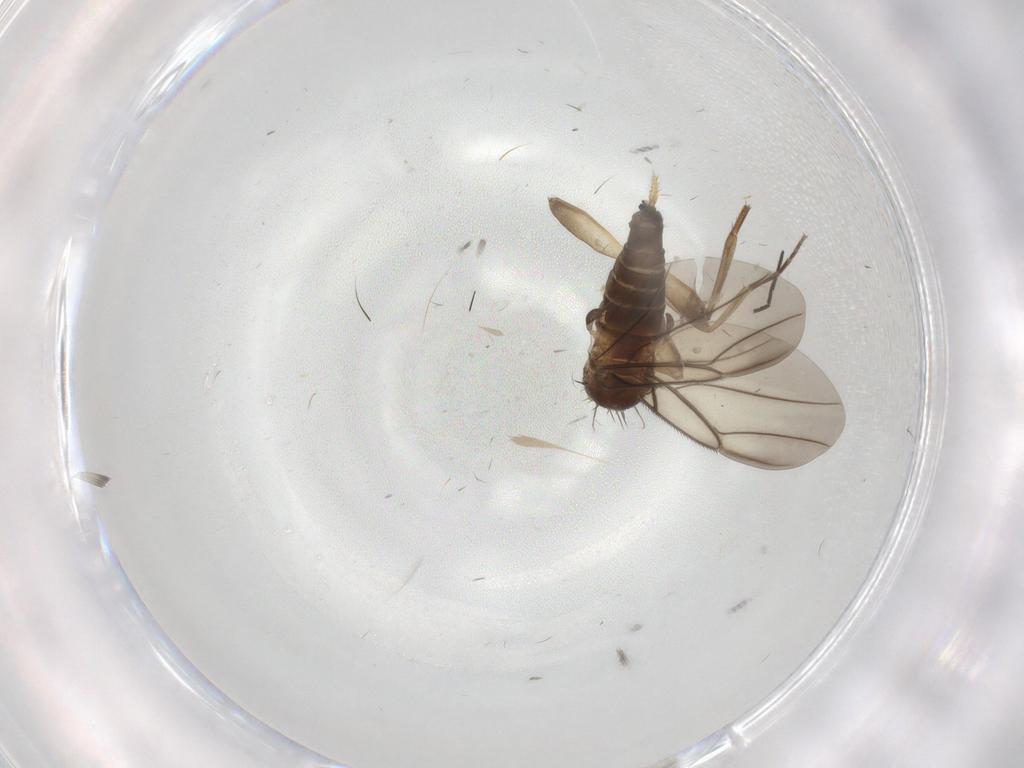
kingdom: Animalia
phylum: Arthropoda
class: Insecta
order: Diptera
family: Phoridae
